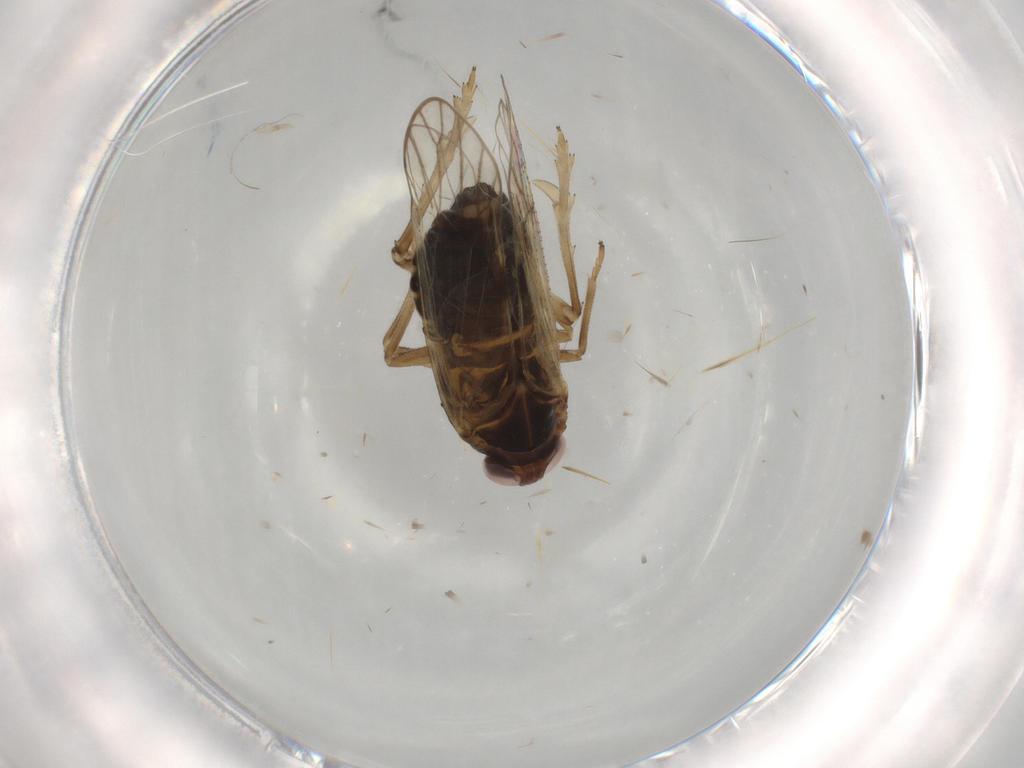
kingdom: Animalia
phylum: Arthropoda
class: Insecta
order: Hemiptera
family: Delphacidae
